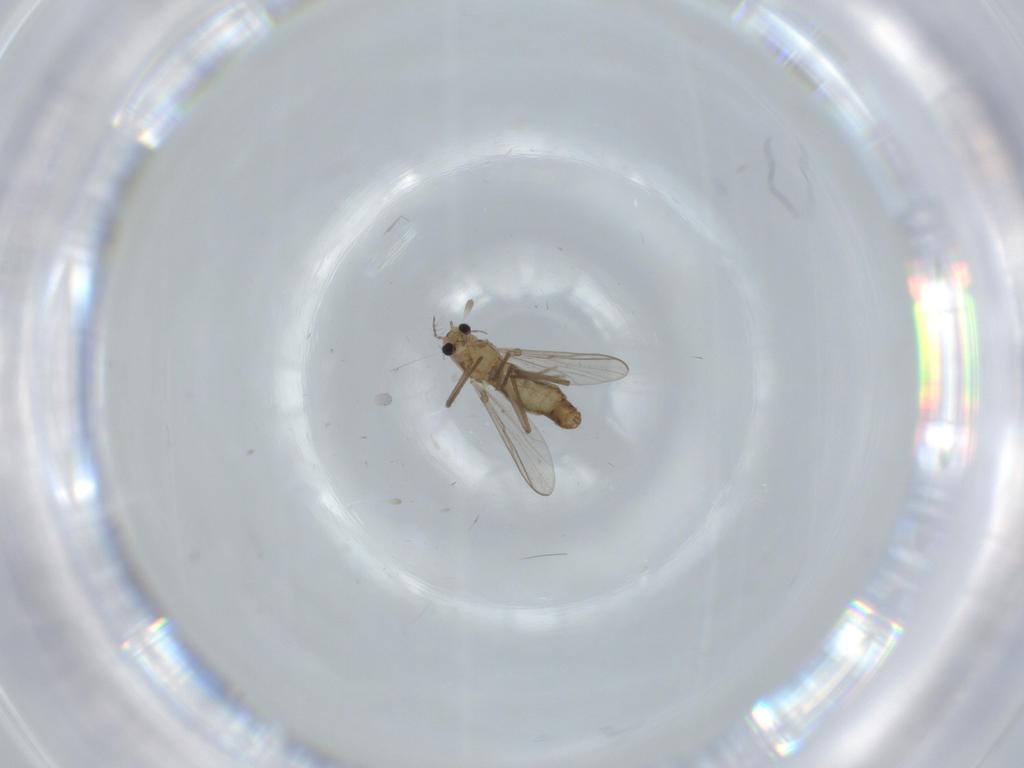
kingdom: Animalia
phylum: Arthropoda
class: Insecta
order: Diptera
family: Chironomidae
